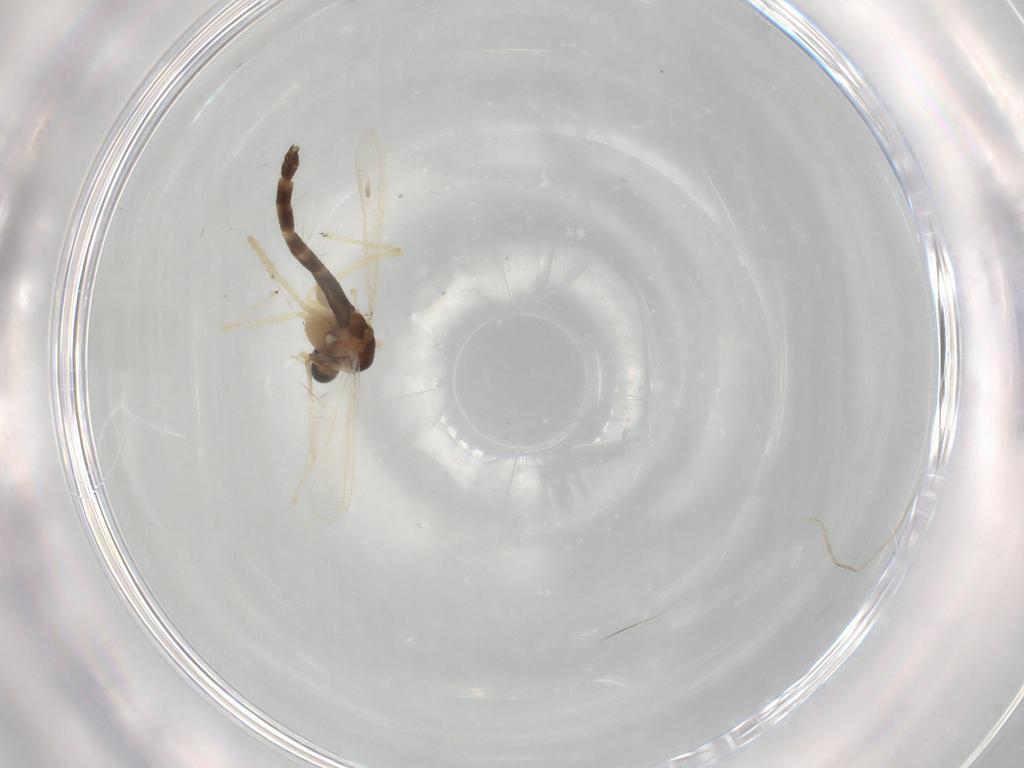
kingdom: Animalia
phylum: Arthropoda
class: Insecta
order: Diptera
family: Chironomidae
